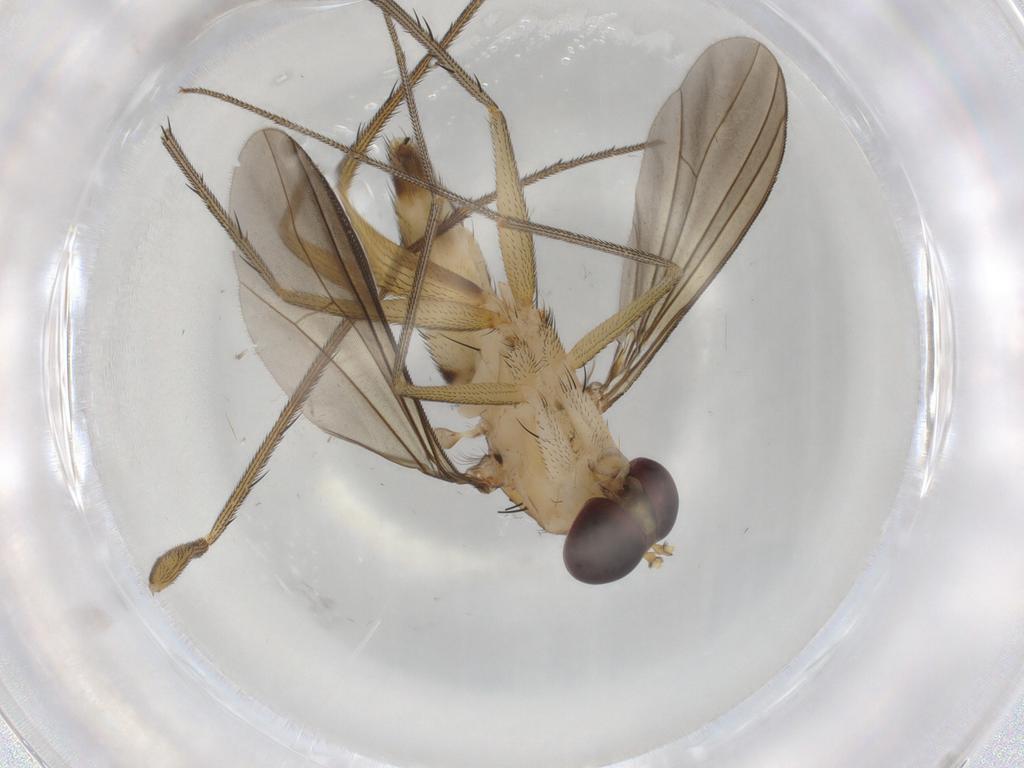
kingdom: Animalia
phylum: Arthropoda
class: Insecta
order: Diptera
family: Dolichopodidae
